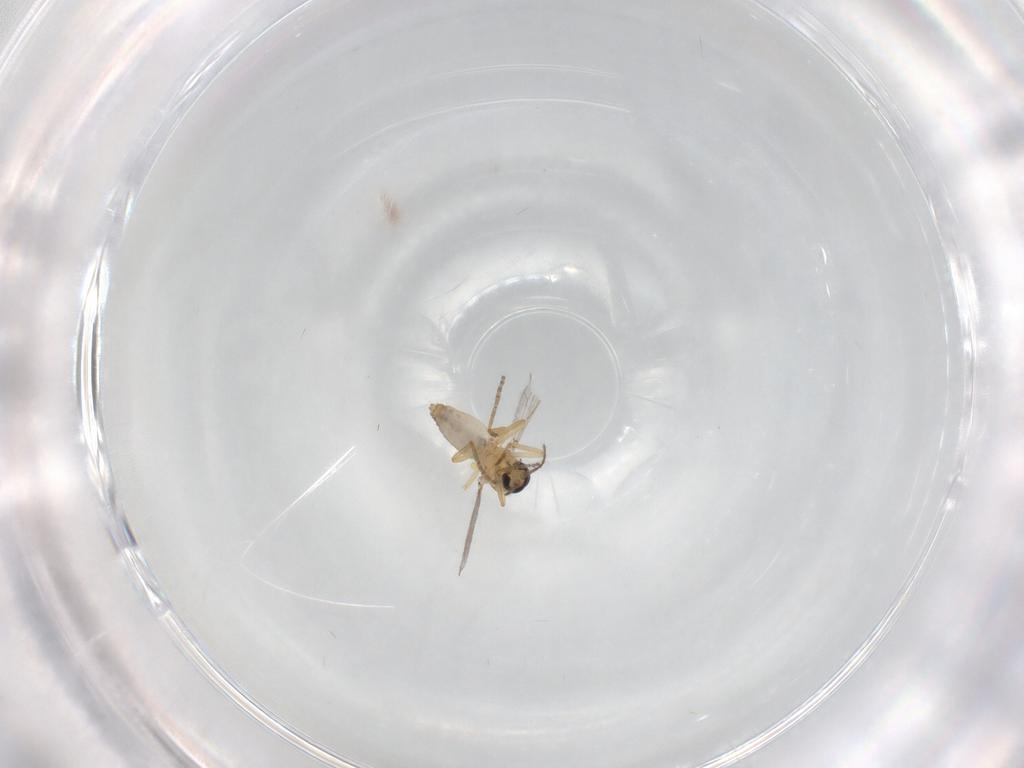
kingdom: Animalia
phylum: Arthropoda
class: Insecta
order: Diptera
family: Ceratopogonidae
